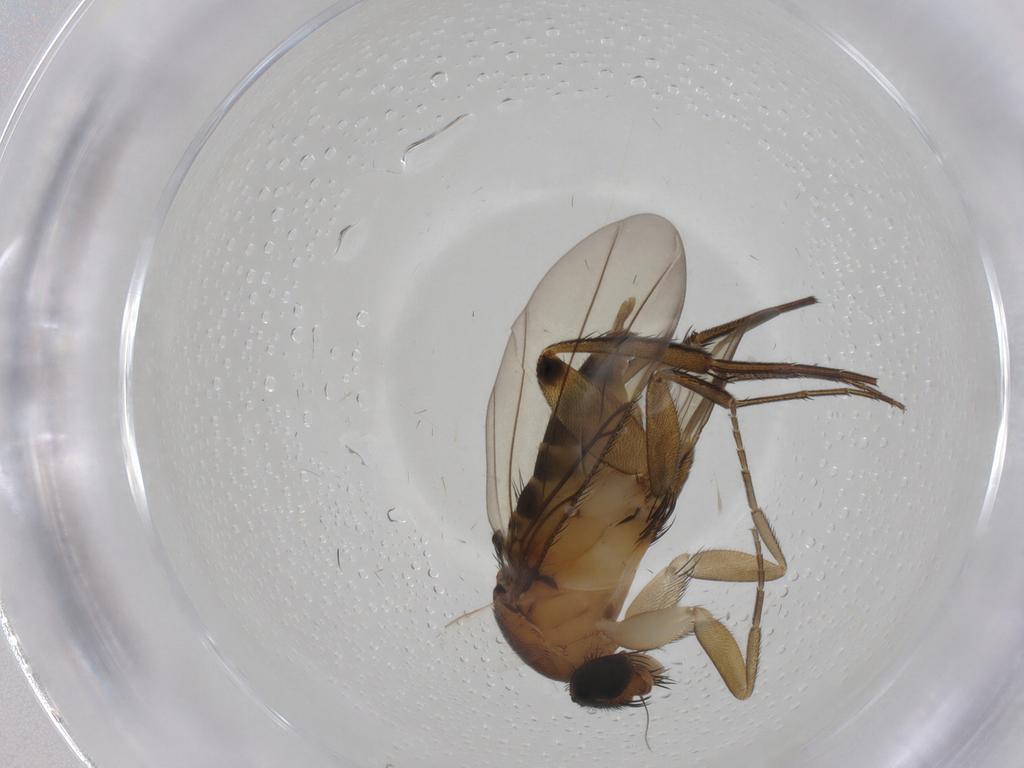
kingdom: Animalia
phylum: Arthropoda
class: Insecta
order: Diptera
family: Phoridae
